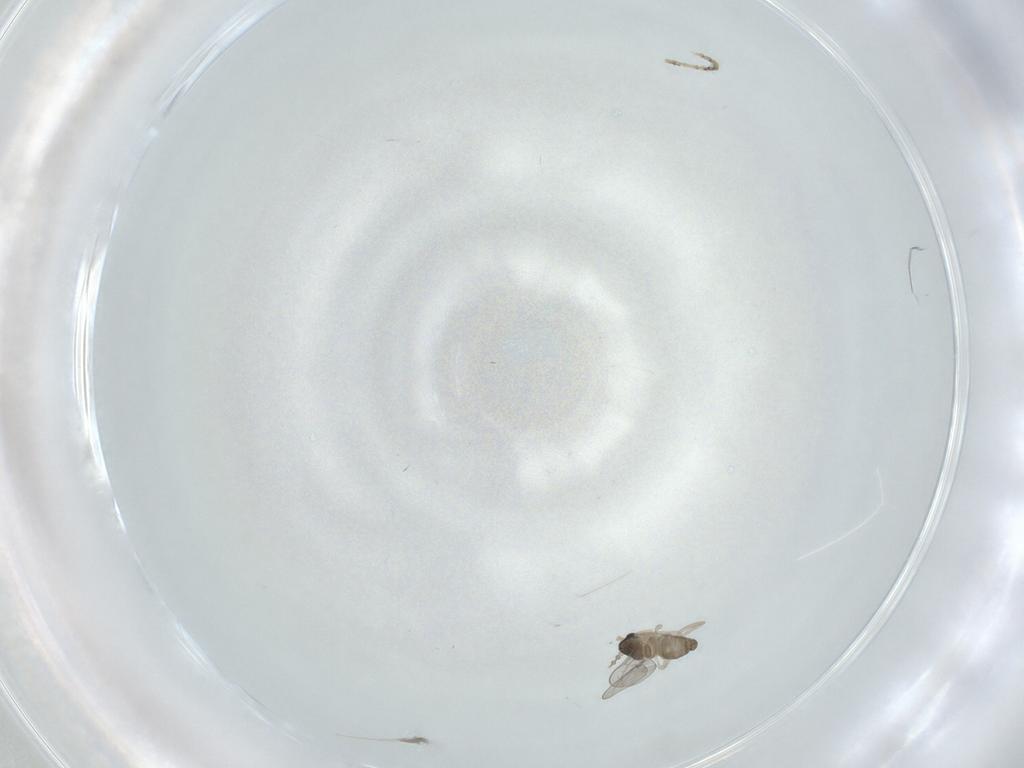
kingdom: Animalia
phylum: Arthropoda
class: Insecta
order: Diptera
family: Cecidomyiidae
